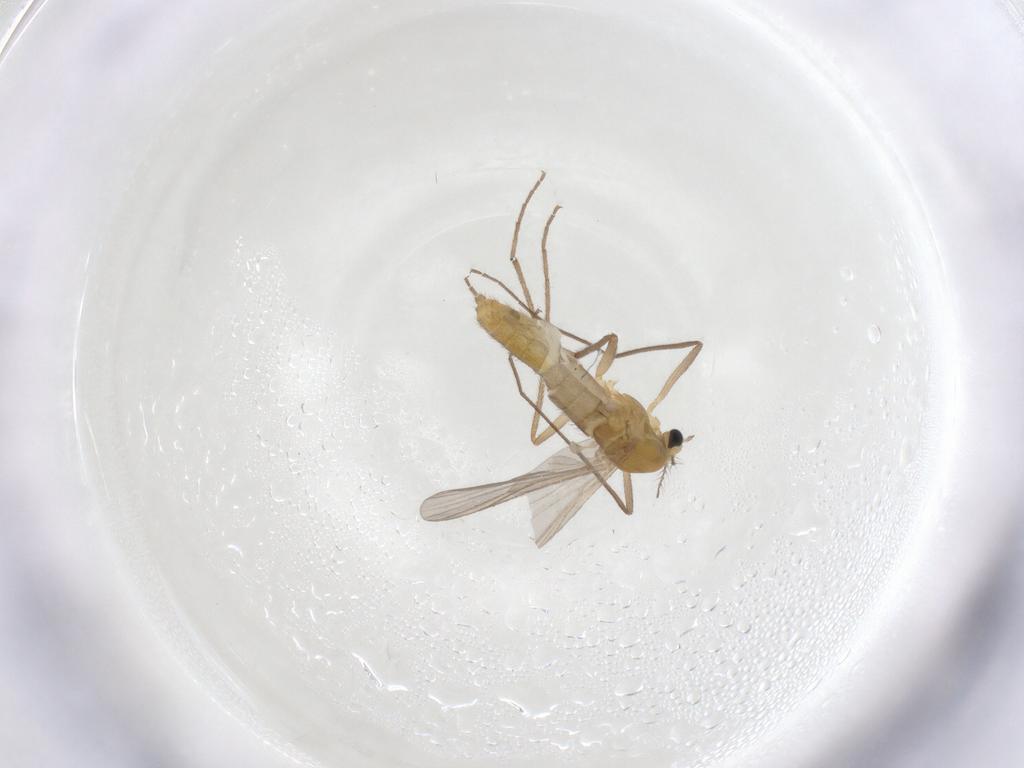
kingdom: Animalia
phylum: Arthropoda
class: Insecta
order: Diptera
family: Chironomidae
